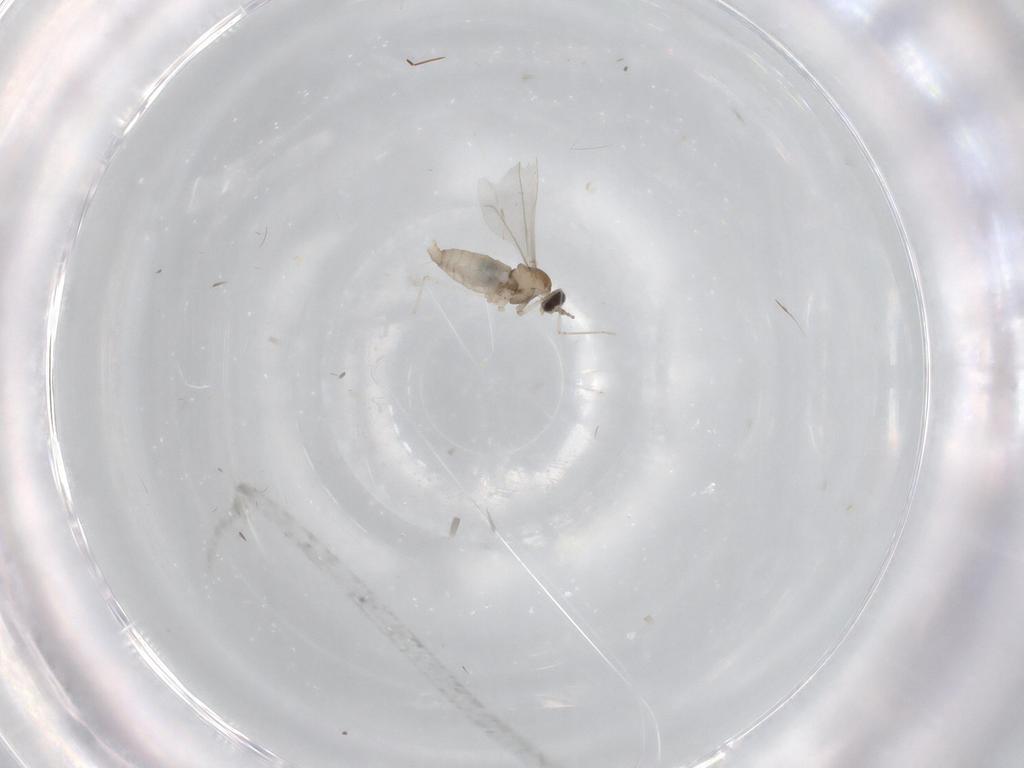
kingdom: Animalia
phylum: Arthropoda
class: Insecta
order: Diptera
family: Cecidomyiidae
